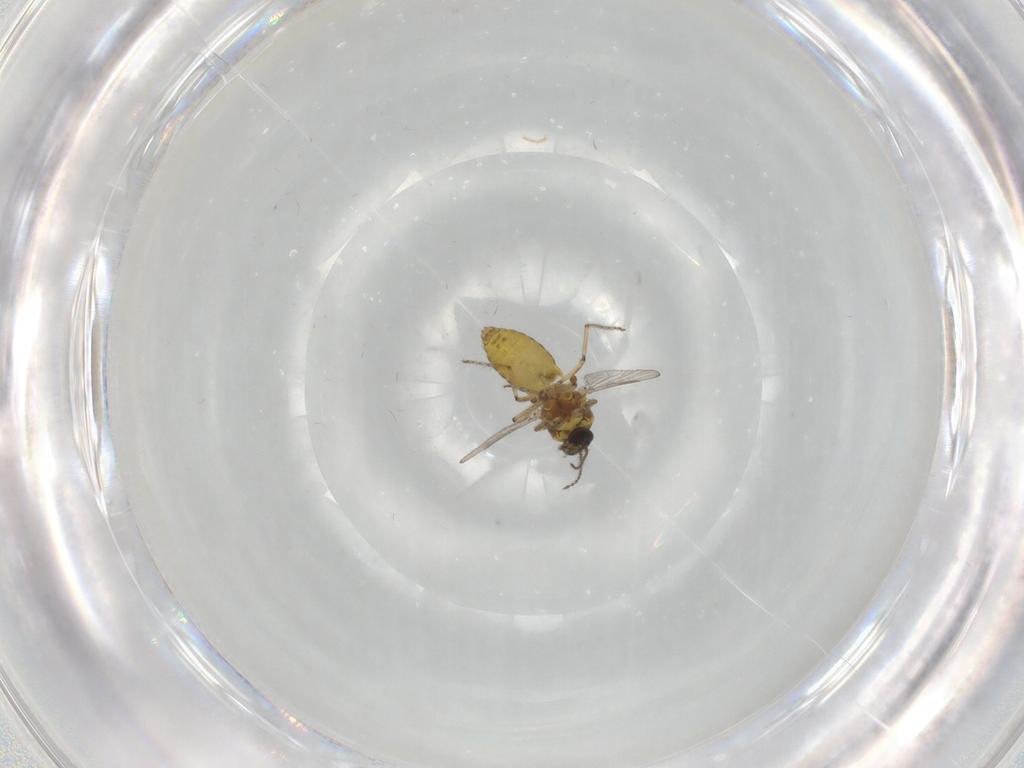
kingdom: Animalia
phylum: Arthropoda
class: Insecta
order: Diptera
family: Ceratopogonidae
